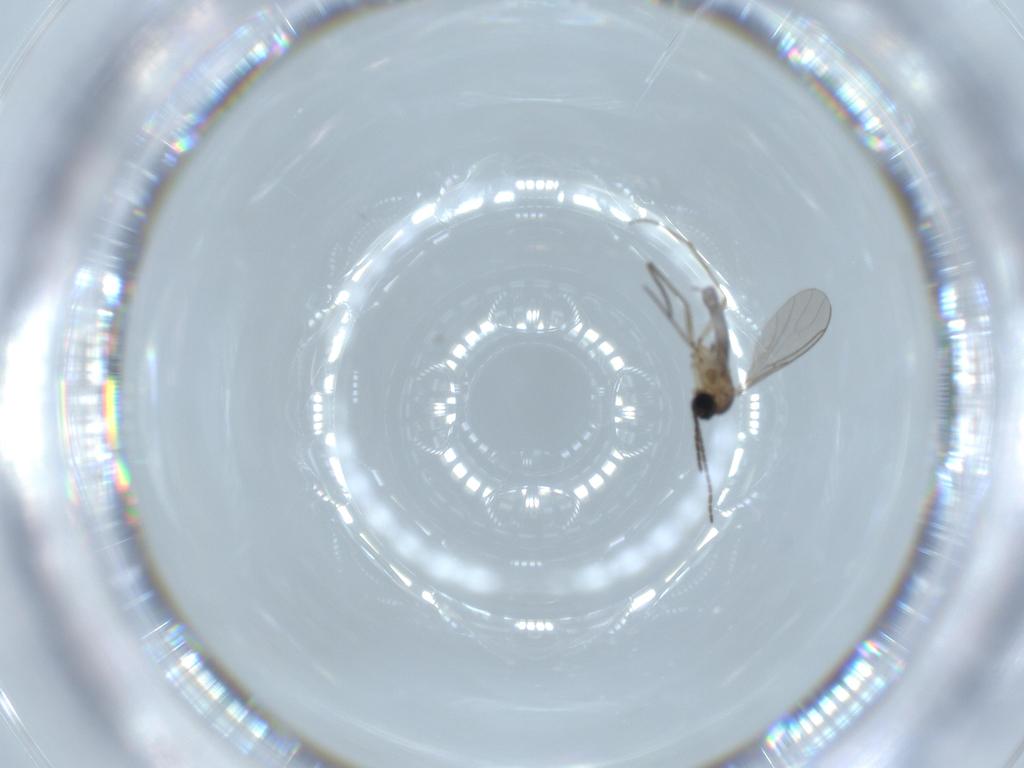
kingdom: Animalia
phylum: Arthropoda
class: Insecta
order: Diptera
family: Sciaridae
